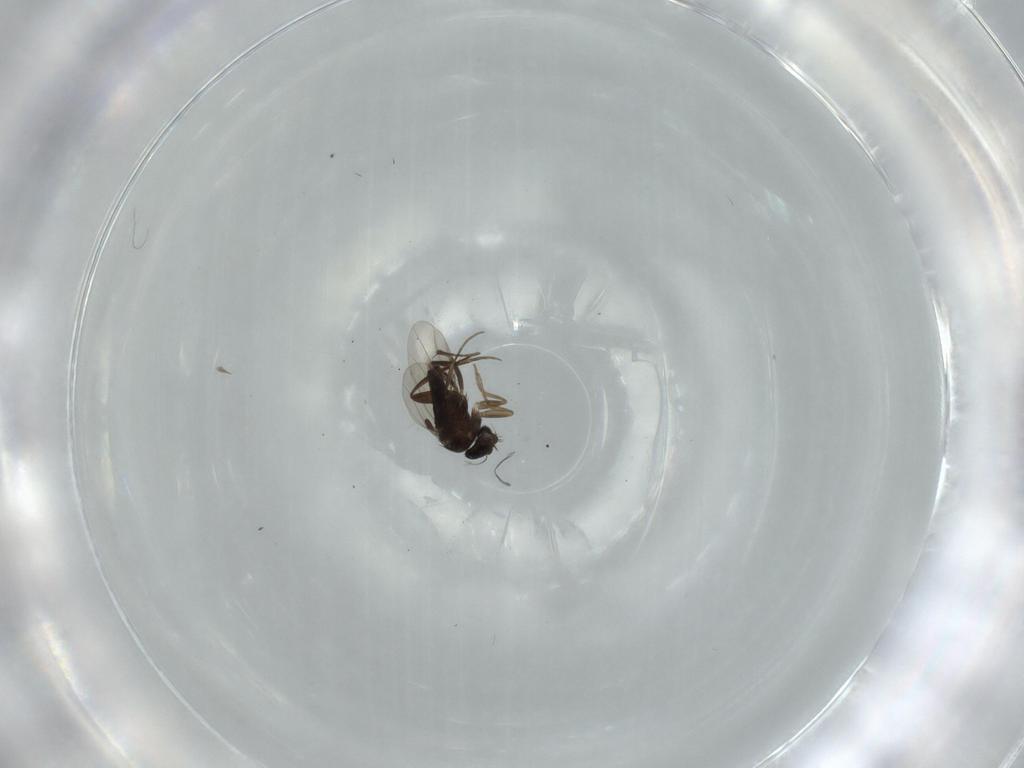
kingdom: Animalia
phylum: Arthropoda
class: Insecta
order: Diptera
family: Phoridae
